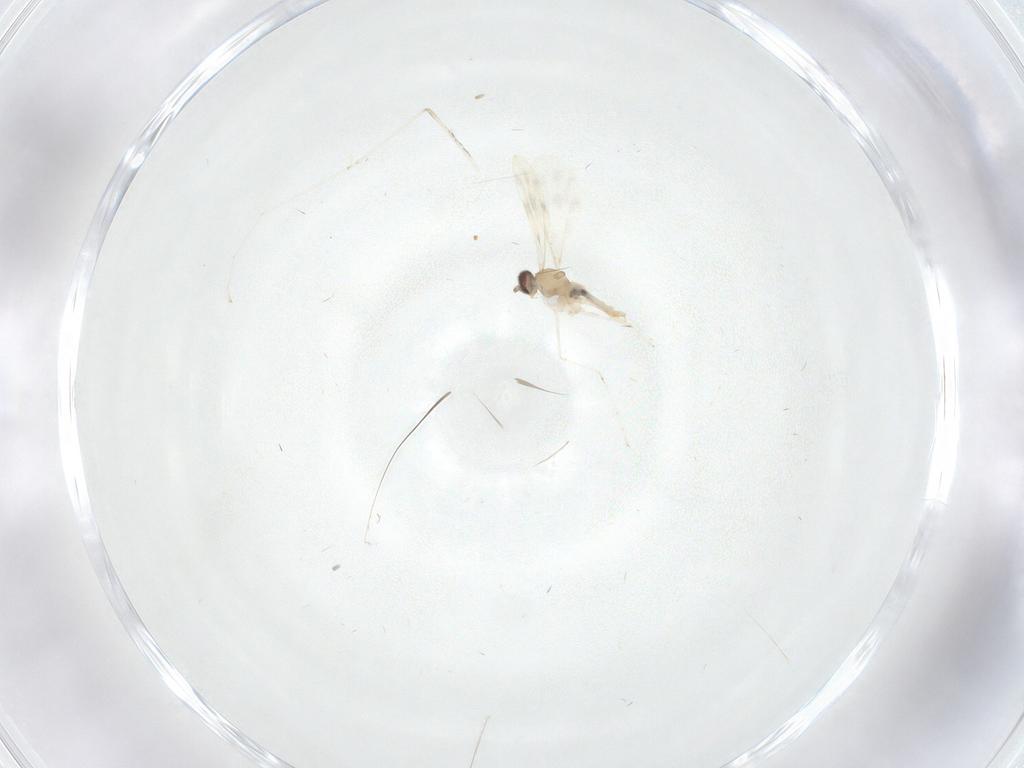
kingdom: Animalia
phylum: Arthropoda
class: Insecta
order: Diptera
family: Cecidomyiidae
